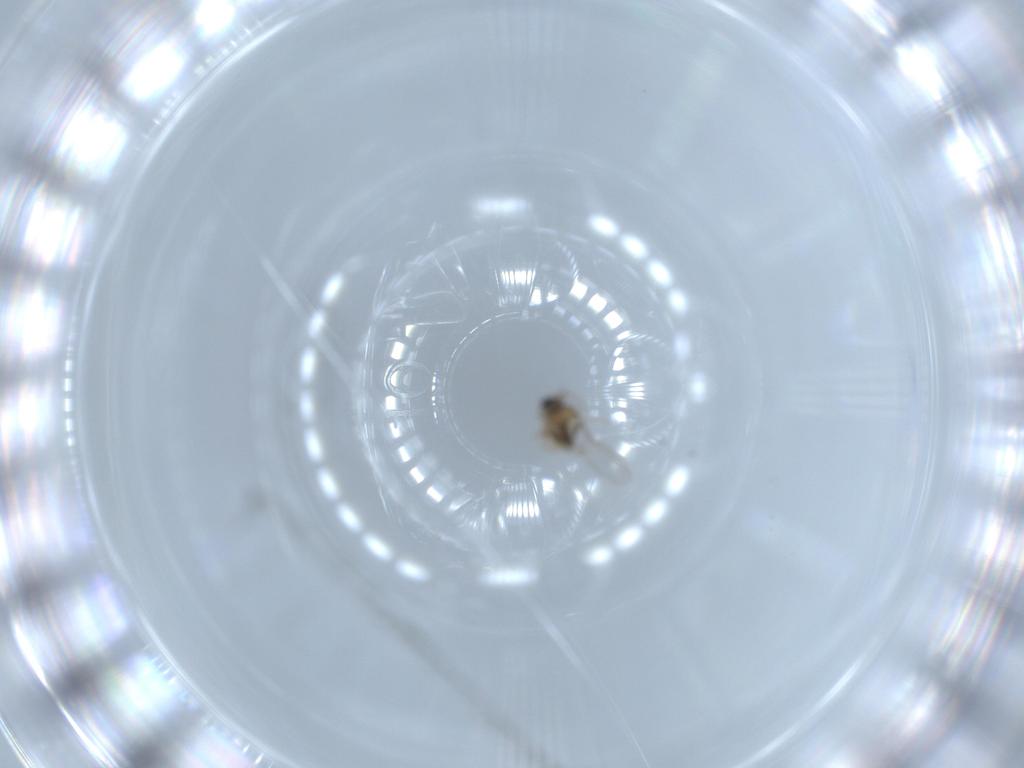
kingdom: Animalia
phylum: Arthropoda
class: Insecta
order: Diptera
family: Cecidomyiidae
